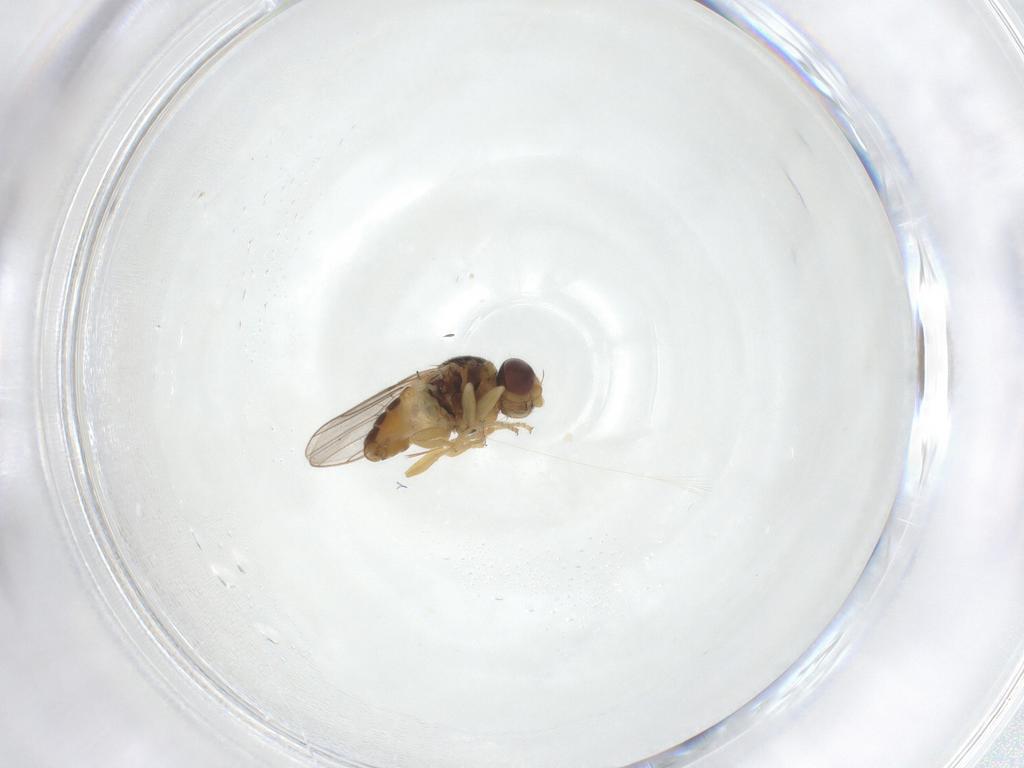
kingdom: Animalia
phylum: Arthropoda
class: Insecta
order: Diptera
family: Chloropidae
